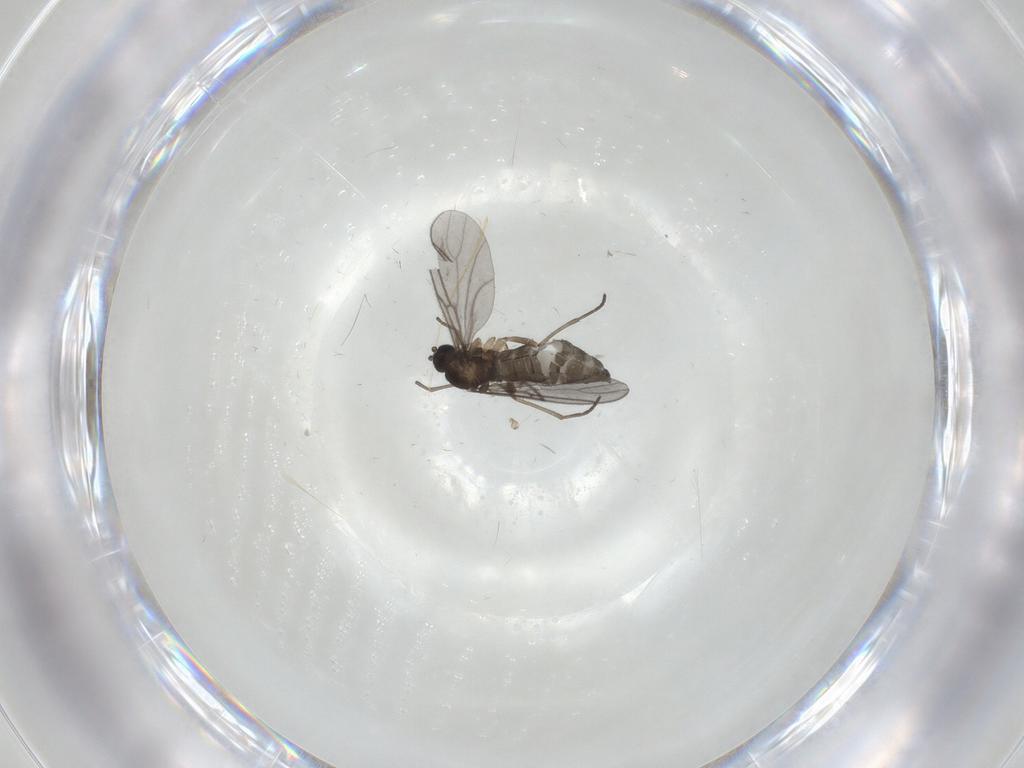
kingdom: Animalia
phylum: Arthropoda
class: Insecta
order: Diptera
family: Sciaridae
